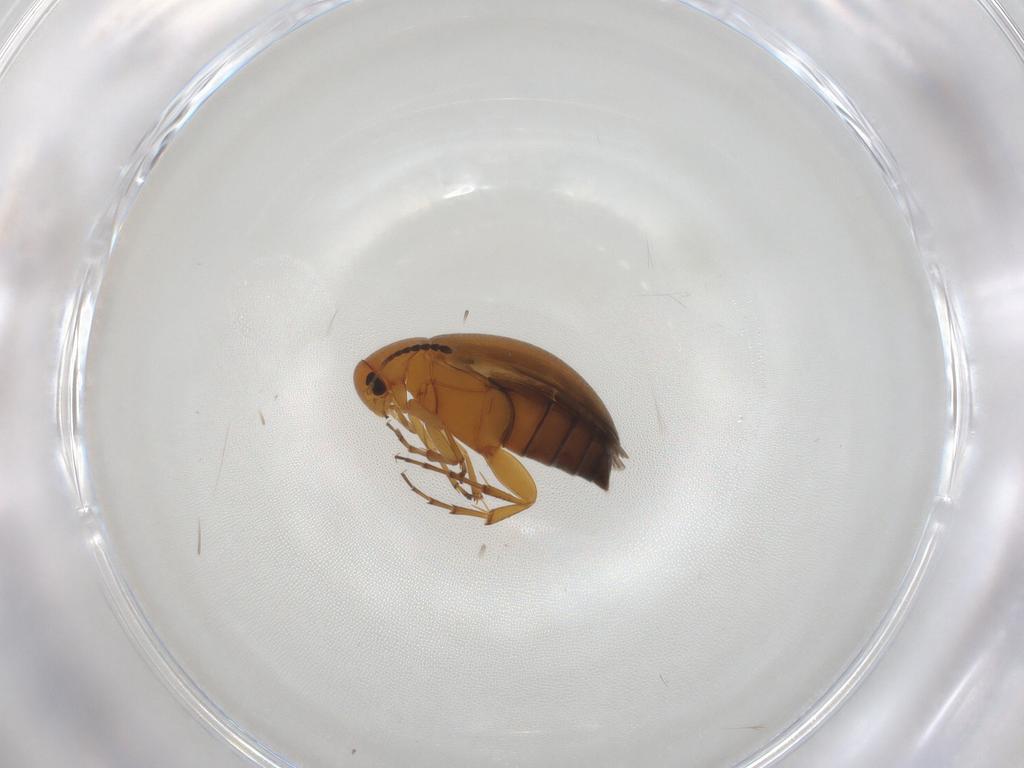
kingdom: Animalia
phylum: Arthropoda
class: Insecta
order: Coleoptera
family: Scraptiidae
